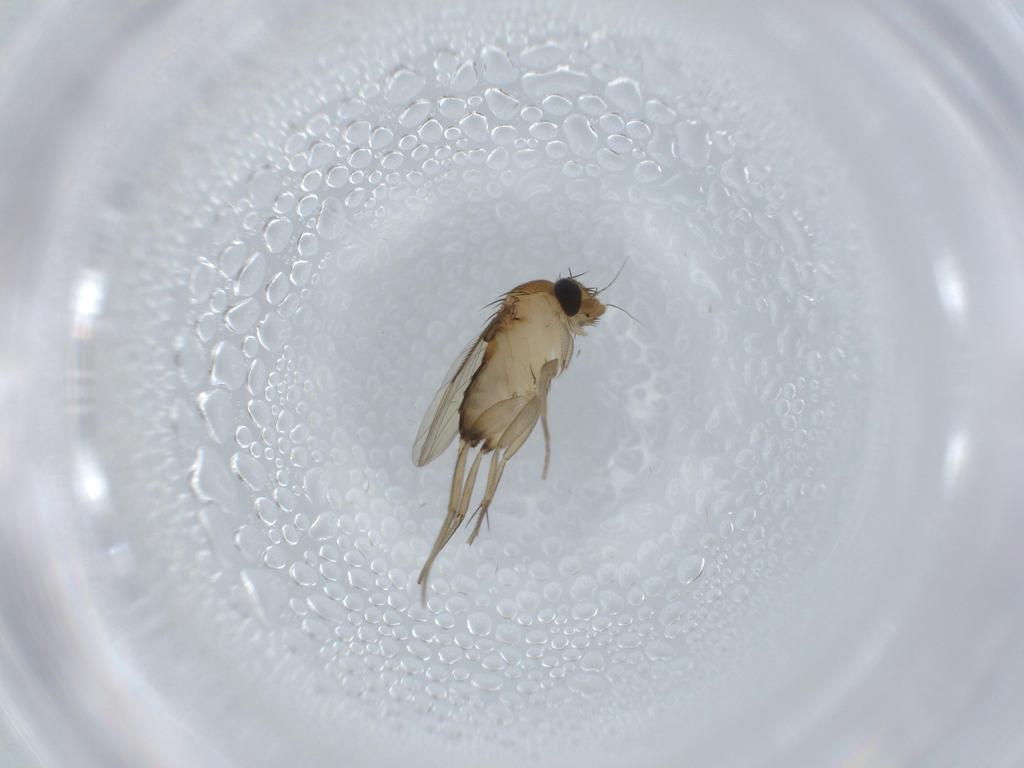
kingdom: Animalia
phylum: Arthropoda
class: Insecta
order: Diptera
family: Phoridae
